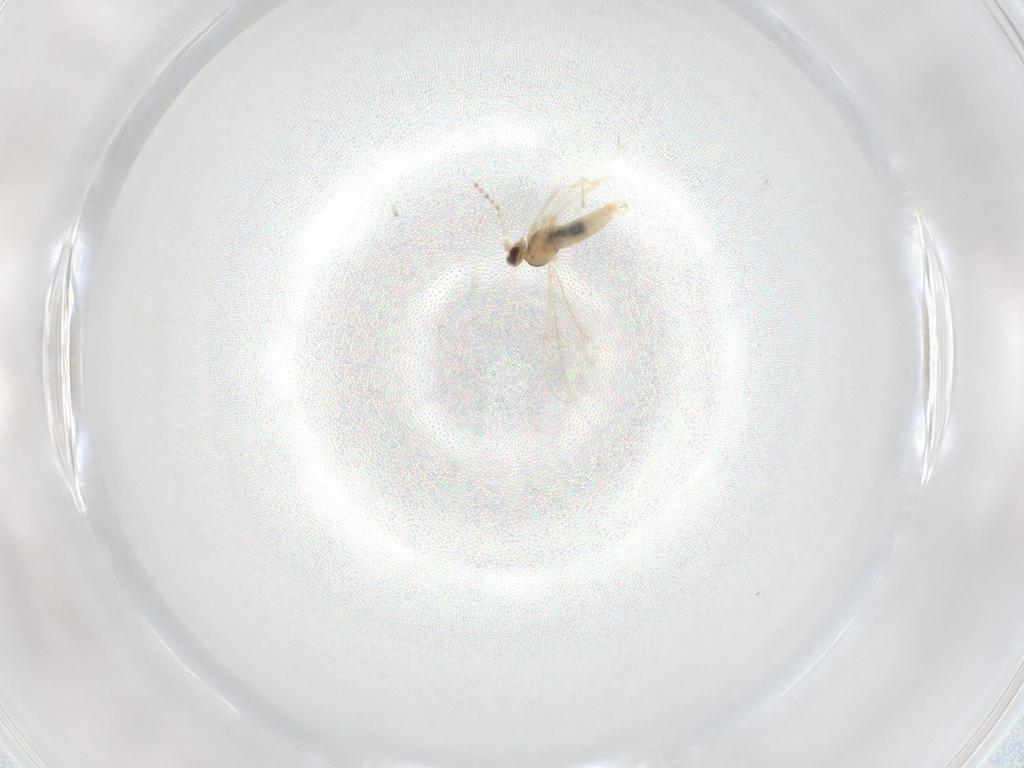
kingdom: Animalia
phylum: Arthropoda
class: Insecta
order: Diptera
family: Cecidomyiidae
